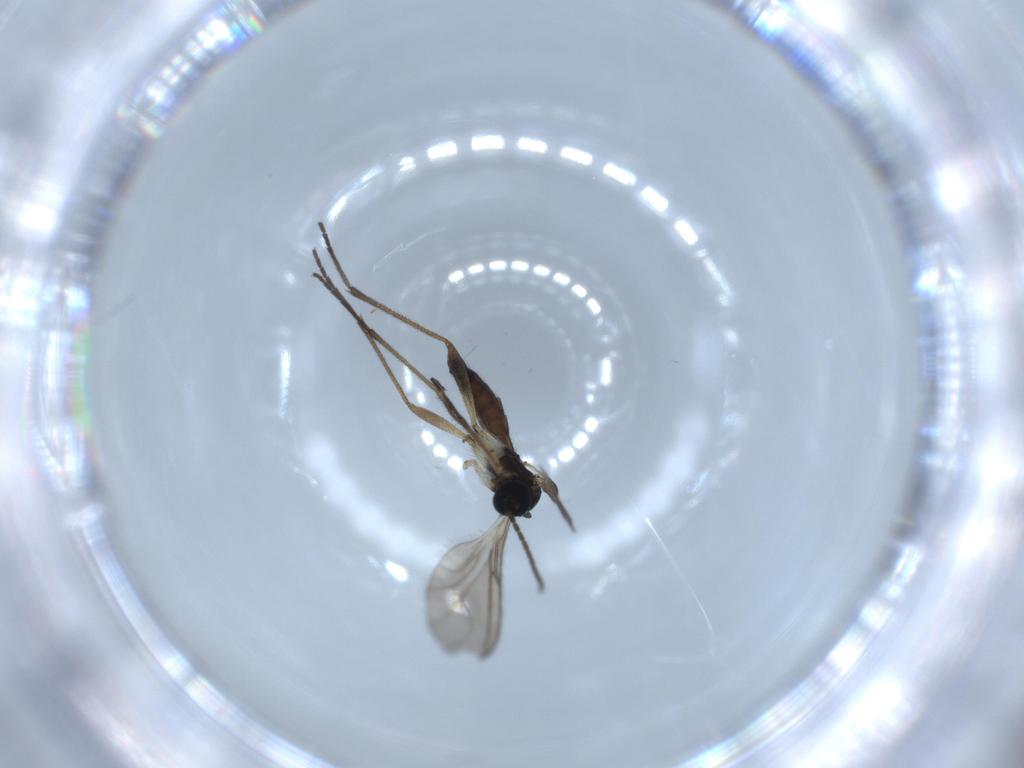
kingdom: Animalia
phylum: Arthropoda
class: Insecta
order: Diptera
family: Sciaridae
